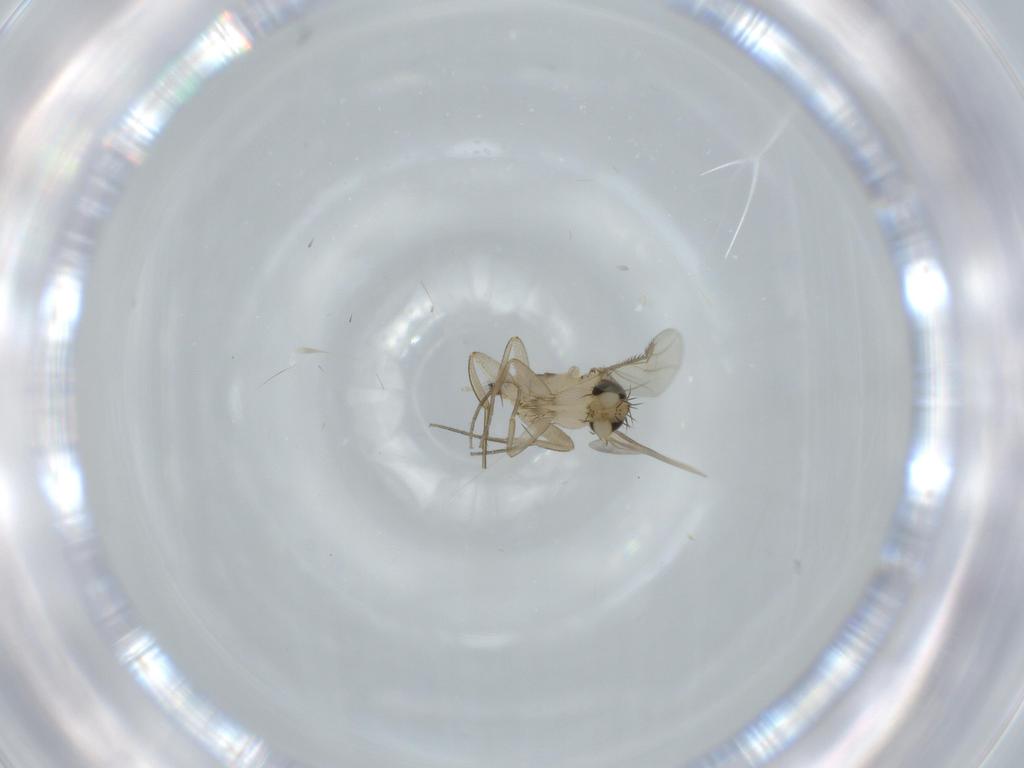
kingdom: Animalia
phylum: Arthropoda
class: Insecta
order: Diptera
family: Phoridae
